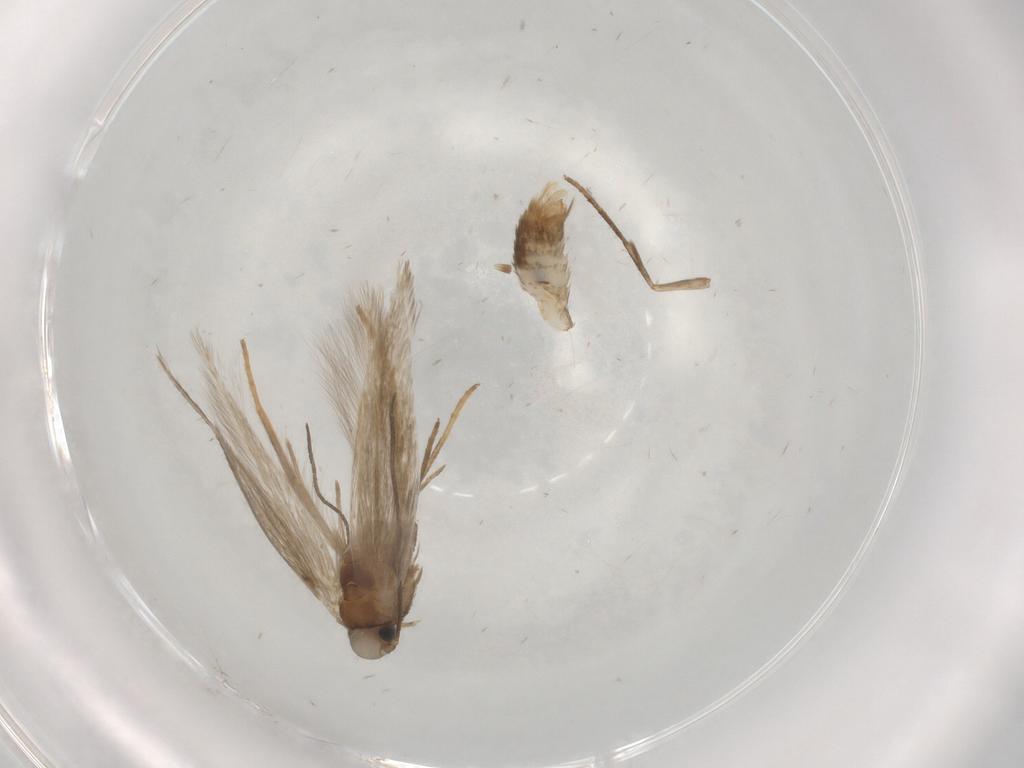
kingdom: Animalia
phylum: Arthropoda
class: Insecta
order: Lepidoptera
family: Tischeriidae
